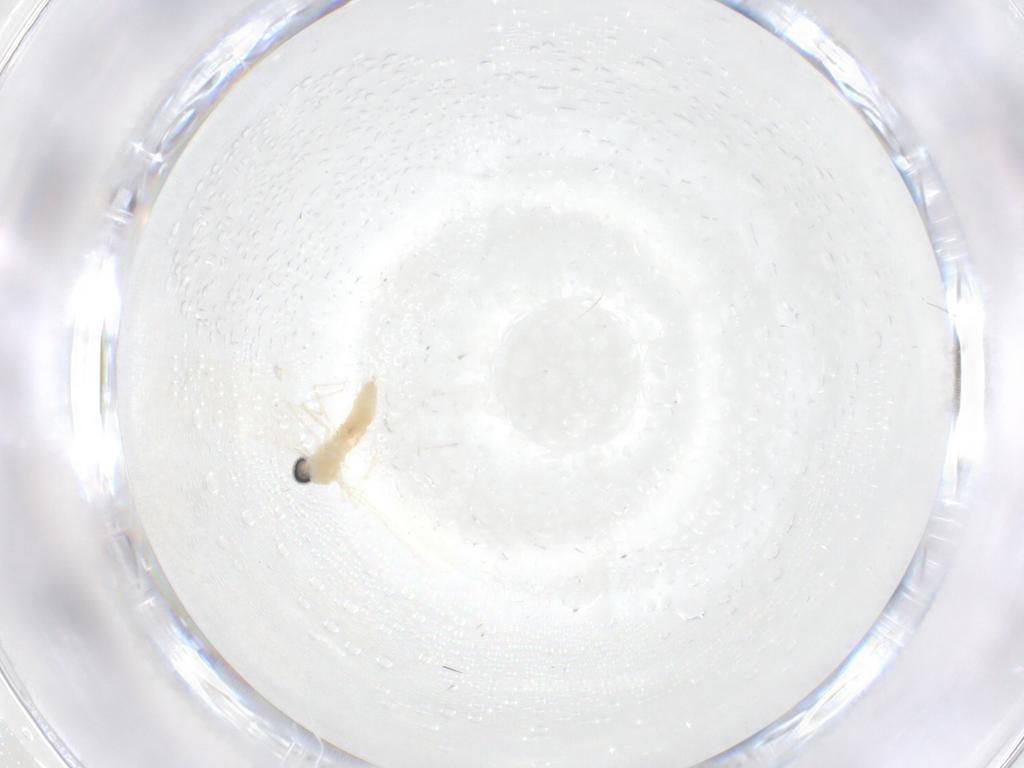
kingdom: Animalia
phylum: Arthropoda
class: Insecta
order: Diptera
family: Cecidomyiidae
